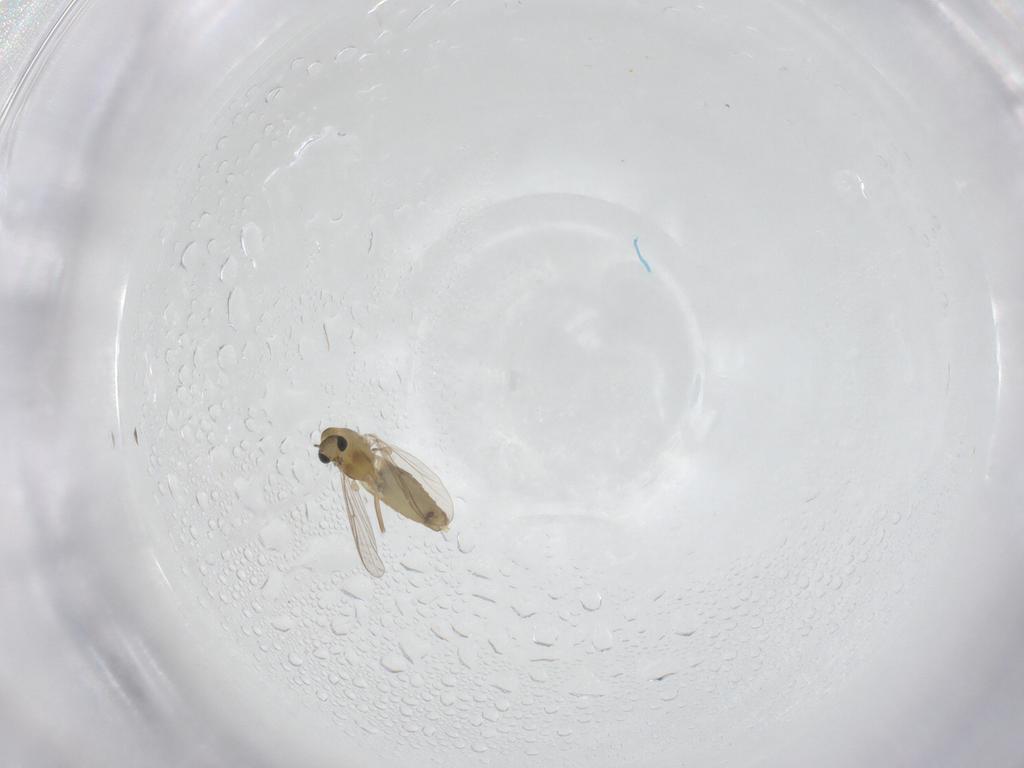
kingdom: Animalia
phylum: Arthropoda
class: Insecta
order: Diptera
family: Chironomidae
